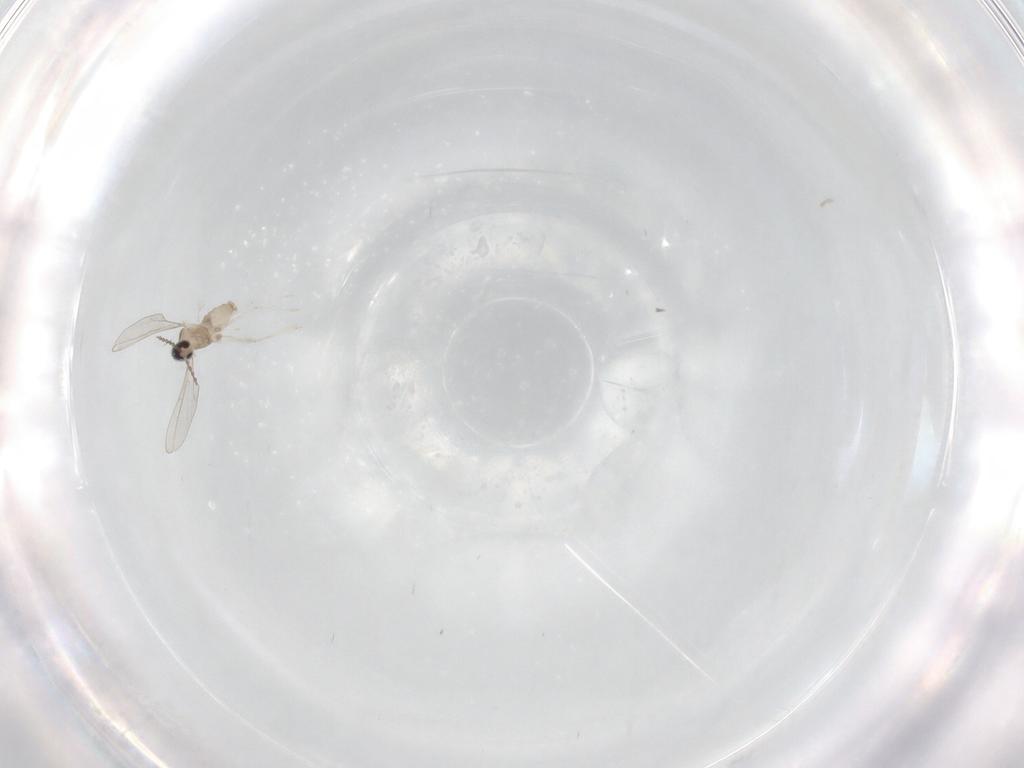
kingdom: Animalia
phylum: Arthropoda
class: Insecta
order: Diptera
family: Cecidomyiidae
